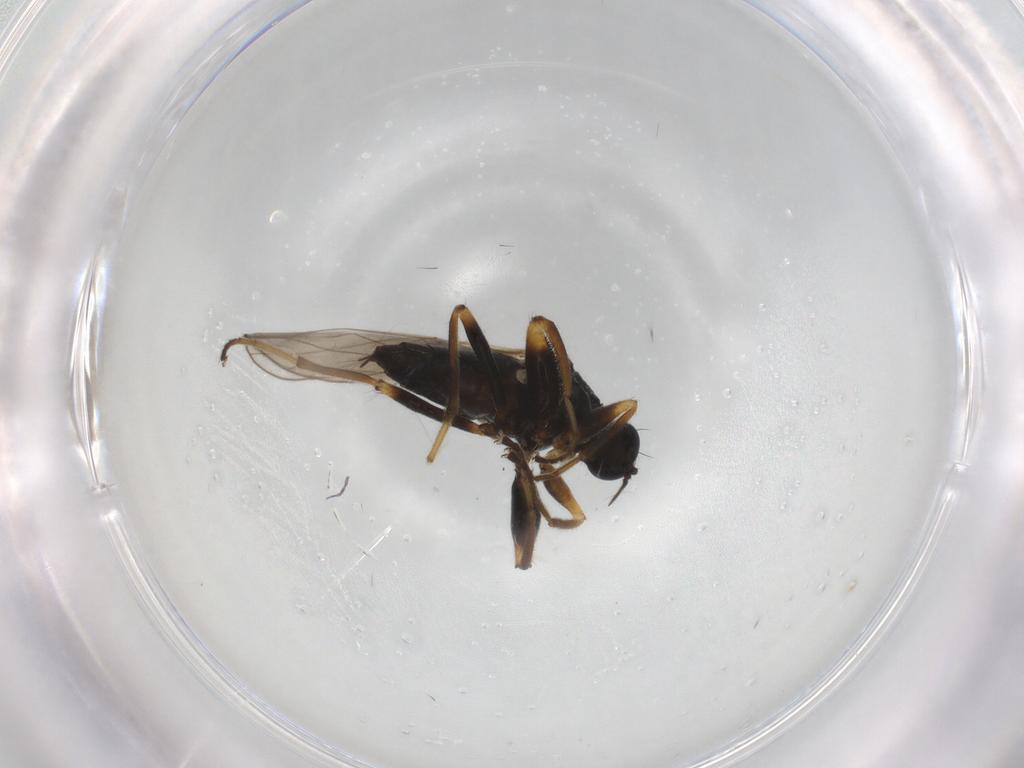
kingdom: Animalia
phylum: Arthropoda
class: Insecta
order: Diptera
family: Sciaridae
